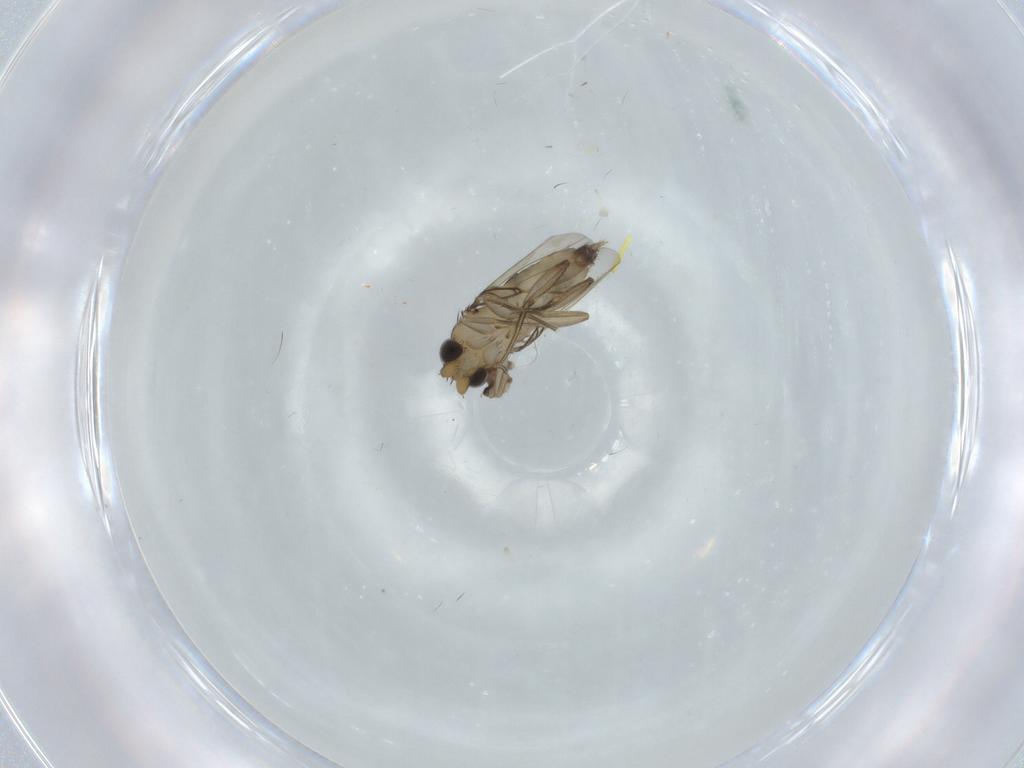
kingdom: Animalia
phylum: Arthropoda
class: Insecta
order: Diptera
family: Phoridae
